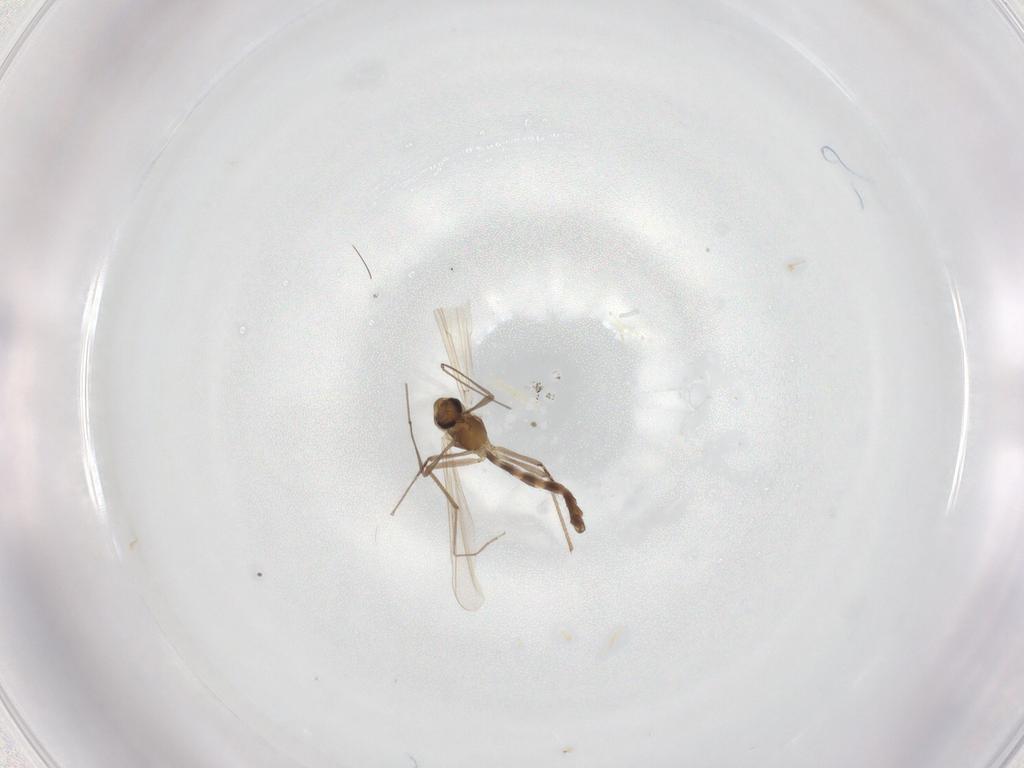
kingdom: Animalia
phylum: Arthropoda
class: Insecta
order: Diptera
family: Chironomidae
